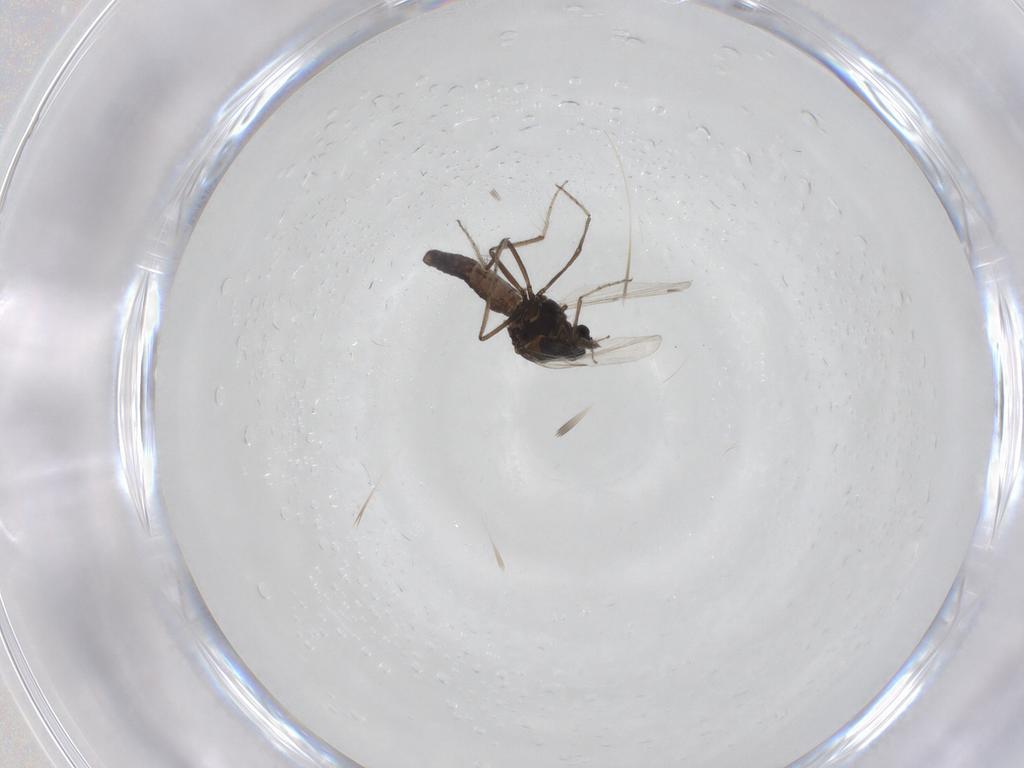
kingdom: Animalia
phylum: Arthropoda
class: Insecta
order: Diptera
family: Ceratopogonidae
